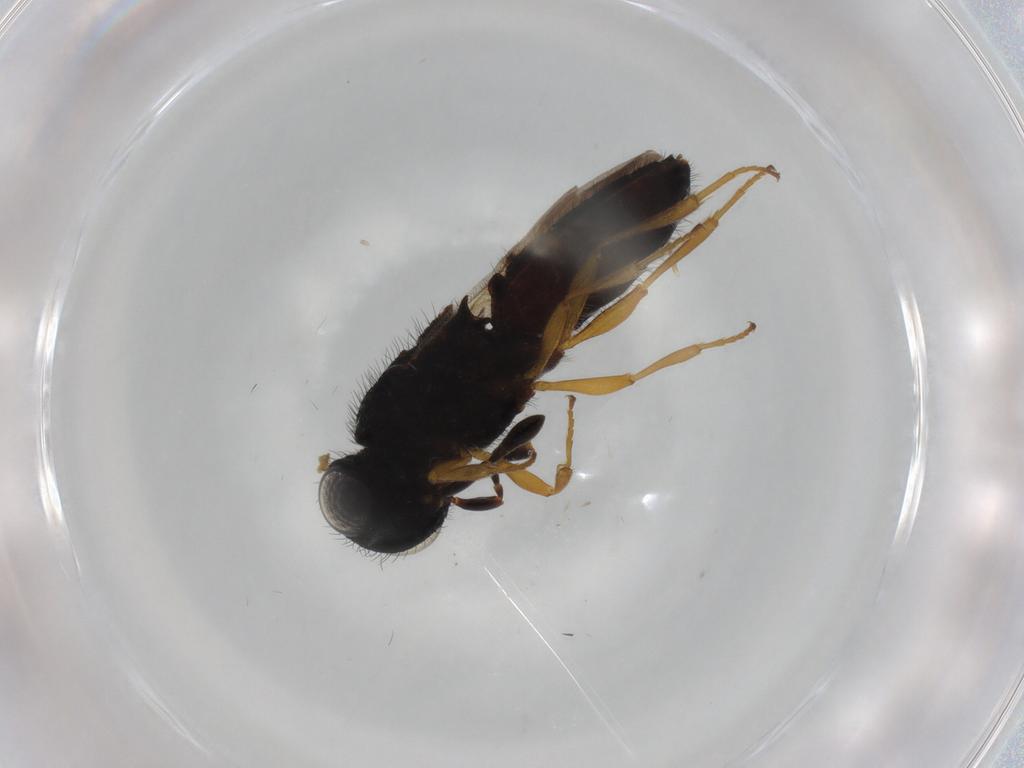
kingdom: Animalia
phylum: Arthropoda
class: Insecta
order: Hymenoptera
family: Scelionidae
